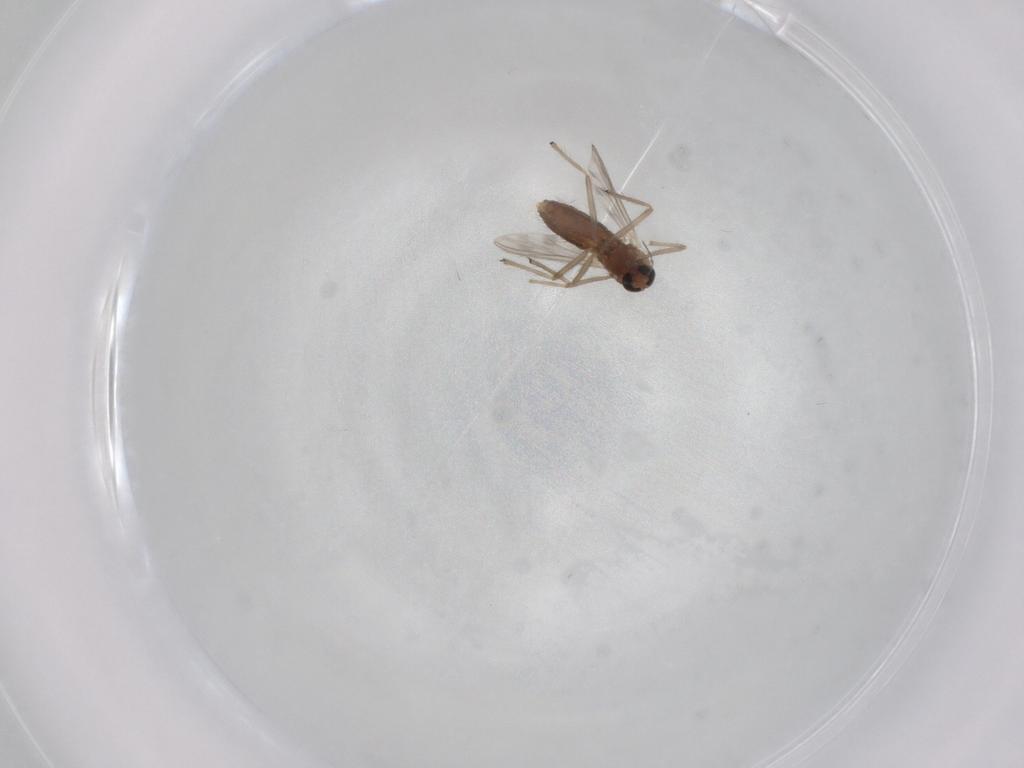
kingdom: Animalia
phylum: Arthropoda
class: Insecta
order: Diptera
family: Chironomidae
